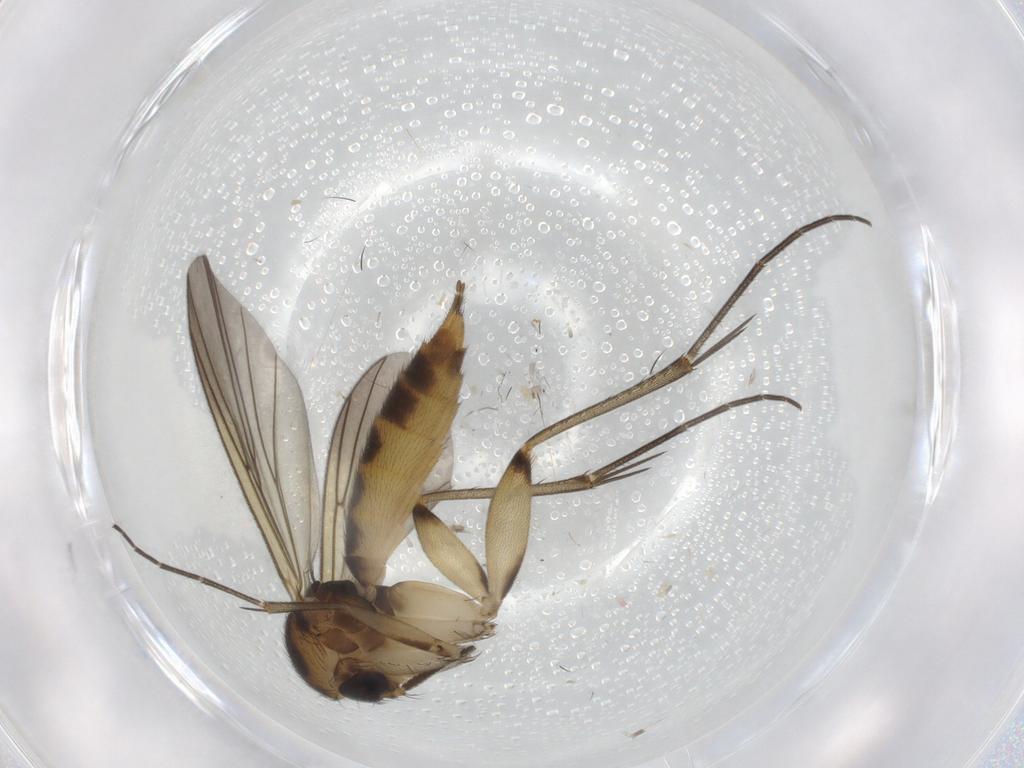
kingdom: Animalia
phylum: Arthropoda
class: Insecta
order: Diptera
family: Mycetophilidae
